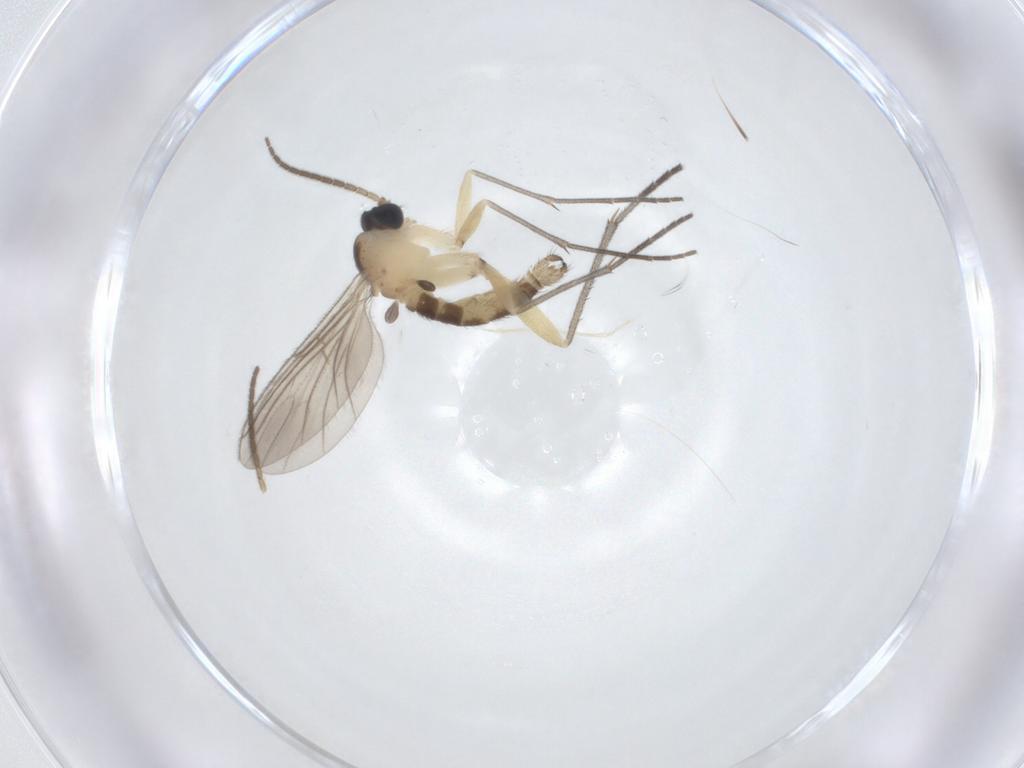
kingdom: Animalia
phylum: Arthropoda
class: Insecta
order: Diptera
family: Sciaridae
